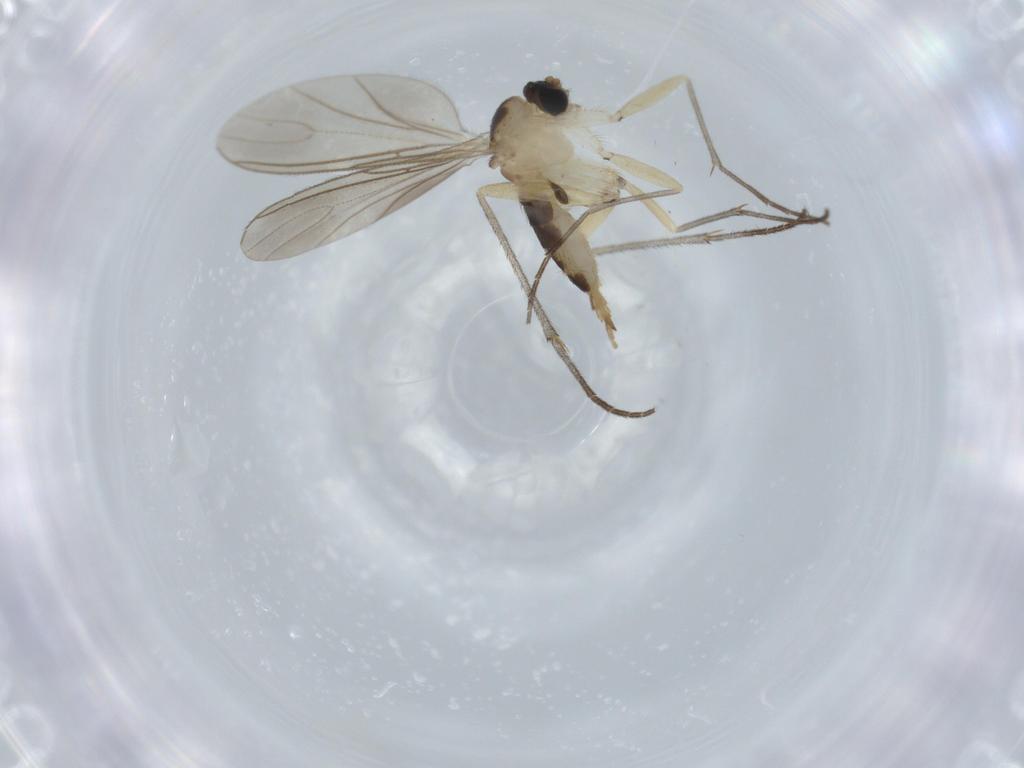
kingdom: Animalia
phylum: Arthropoda
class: Insecta
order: Diptera
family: Sciaridae
